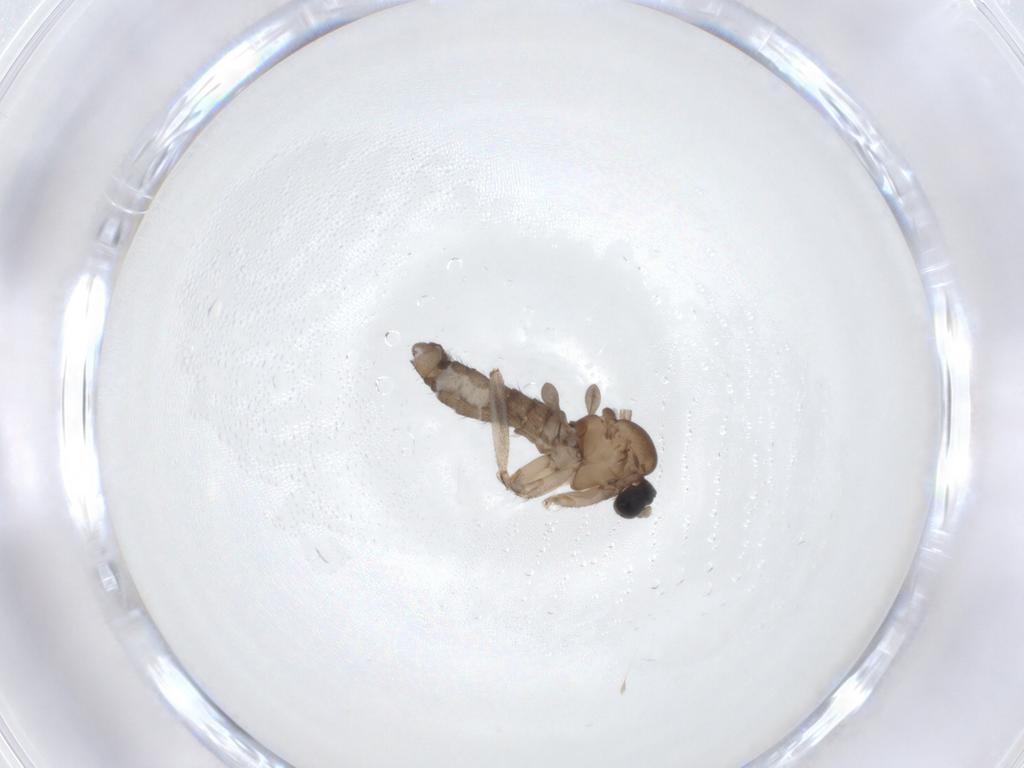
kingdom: Animalia
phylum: Arthropoda
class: Insecta
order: Diptera
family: Sciaridae
